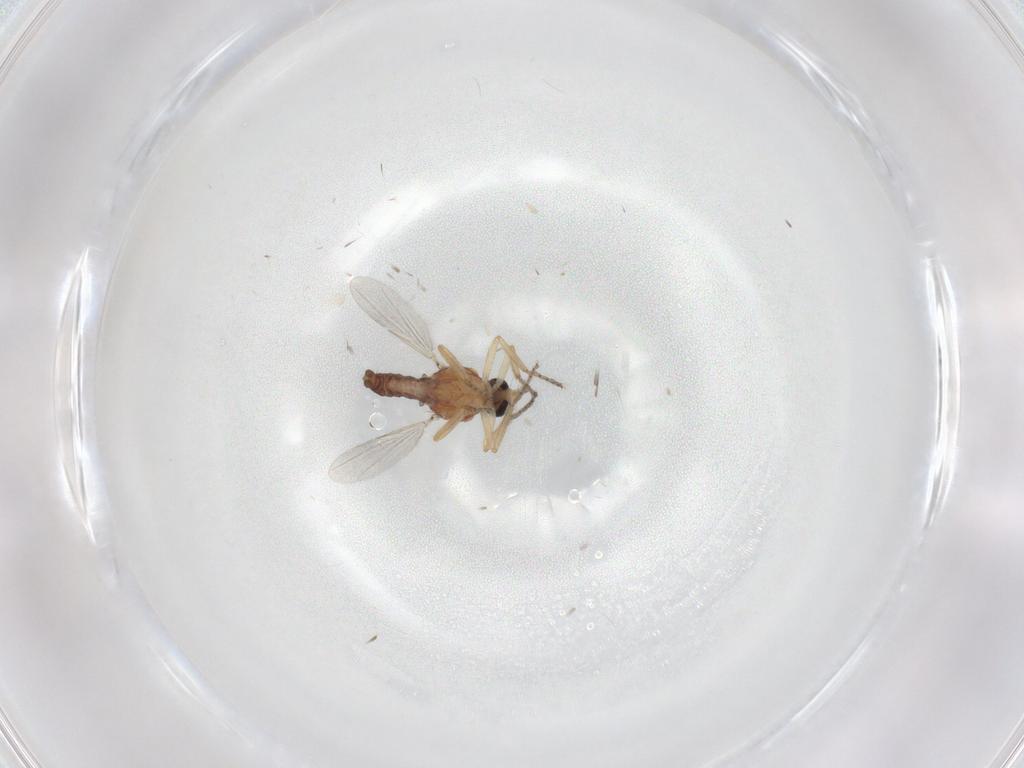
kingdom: Animalia
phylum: Arthropoda
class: Insecta
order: Diptera
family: Ceratopogonidae
